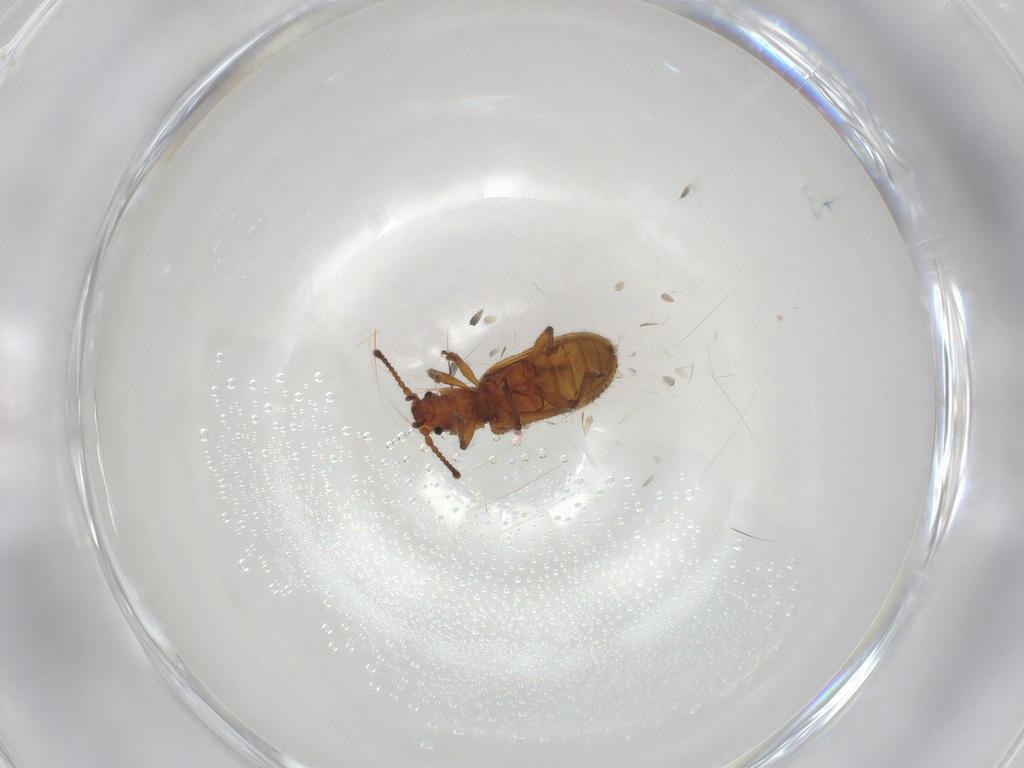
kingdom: Animalia
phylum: Arthropoda
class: Insecta
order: Coleoptera
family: Zopheridae
